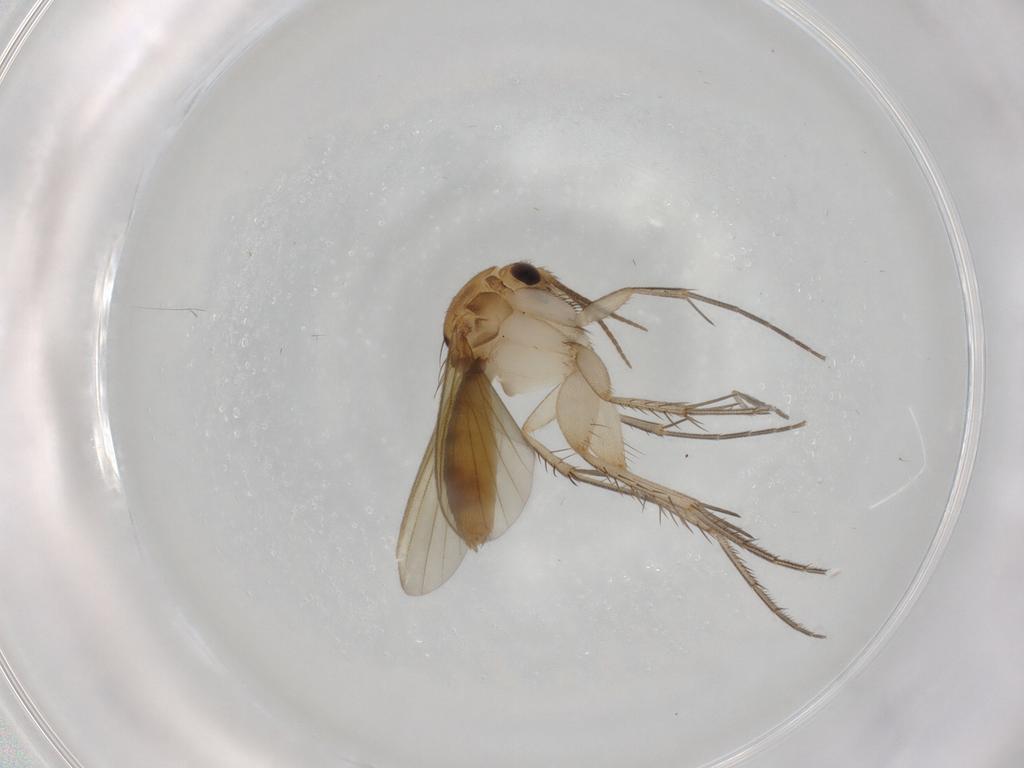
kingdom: Animalia
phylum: Arthropoda
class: Insecta
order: Diptera
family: Mycetophilidae
